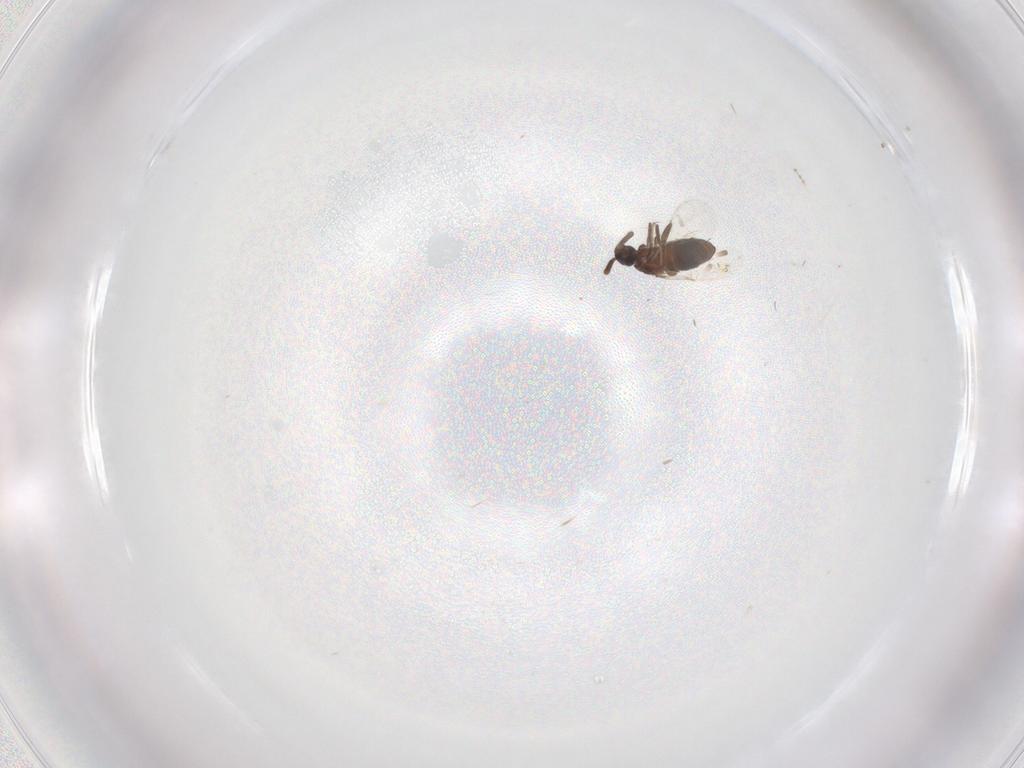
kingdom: Animalia
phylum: Arthropoda
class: Insecta
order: Diptera
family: Scatopsidae
